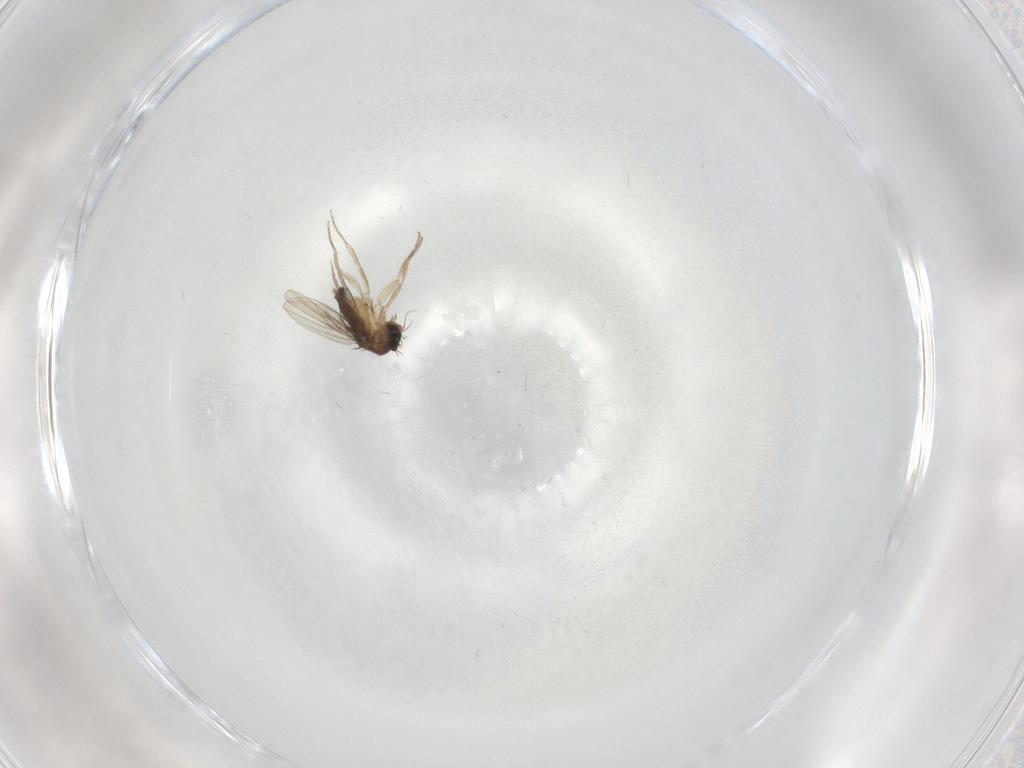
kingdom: Animalia
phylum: Arthropoda
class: Insecta
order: Diptera
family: Phoridae
